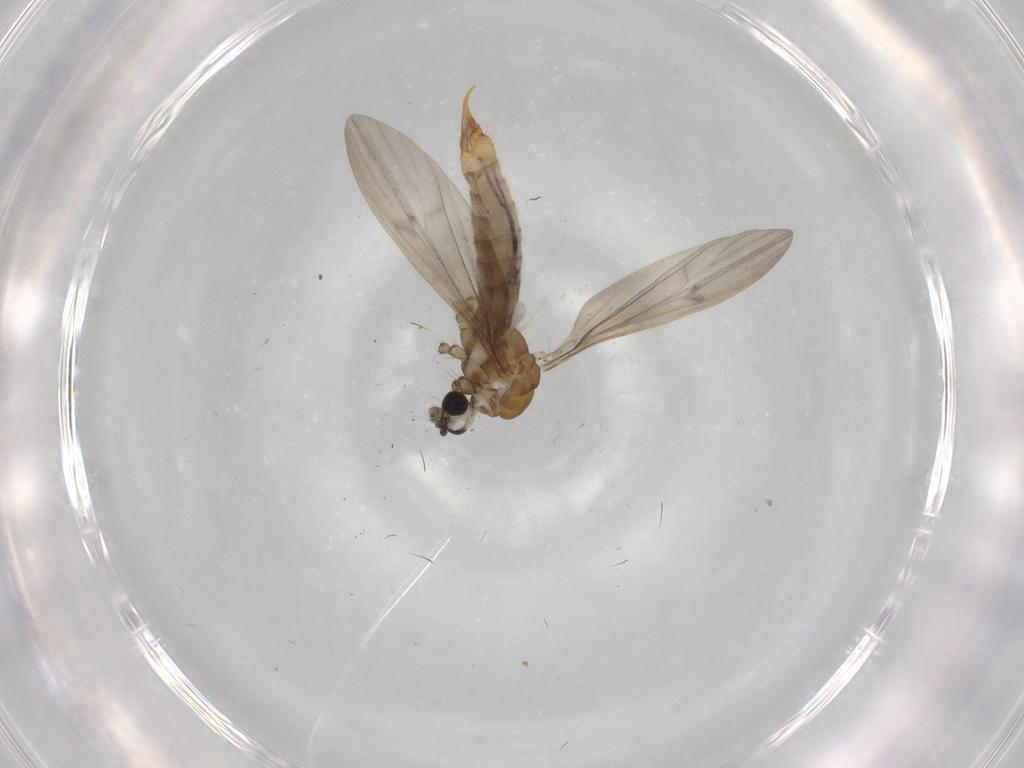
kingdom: Animalia
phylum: Arthropoda
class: Insecta
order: Diptera
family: Limoniidae
